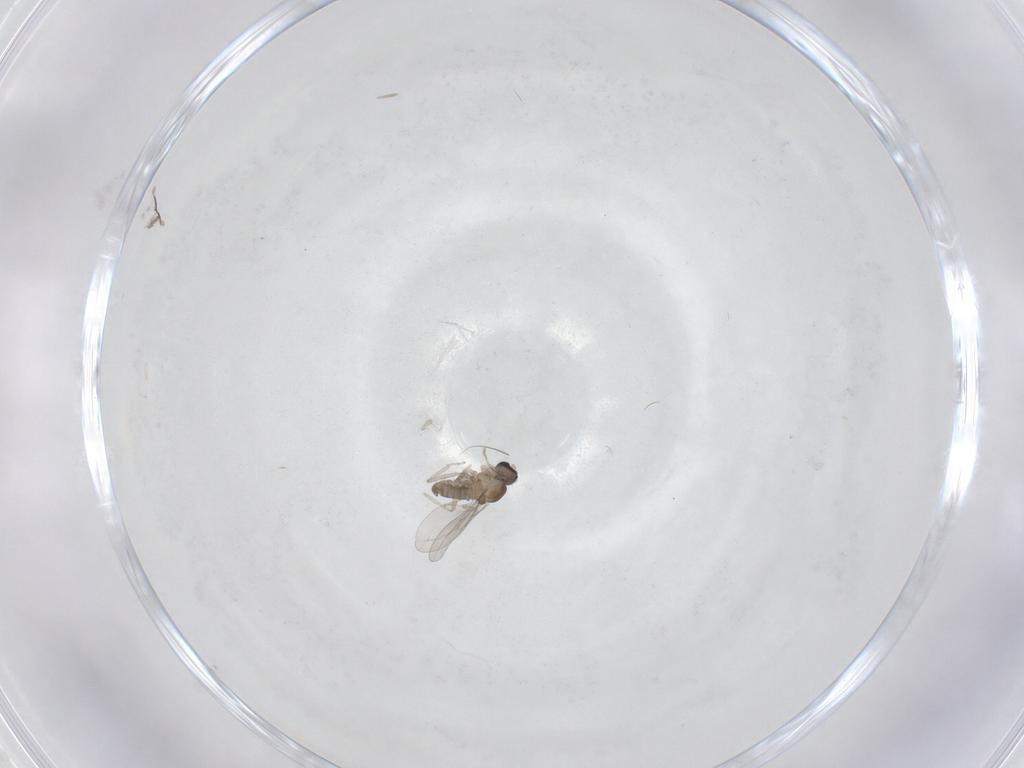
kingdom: Animalia
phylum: Arthropoda
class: Insecta
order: Diptera
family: Cecidomyiidae
